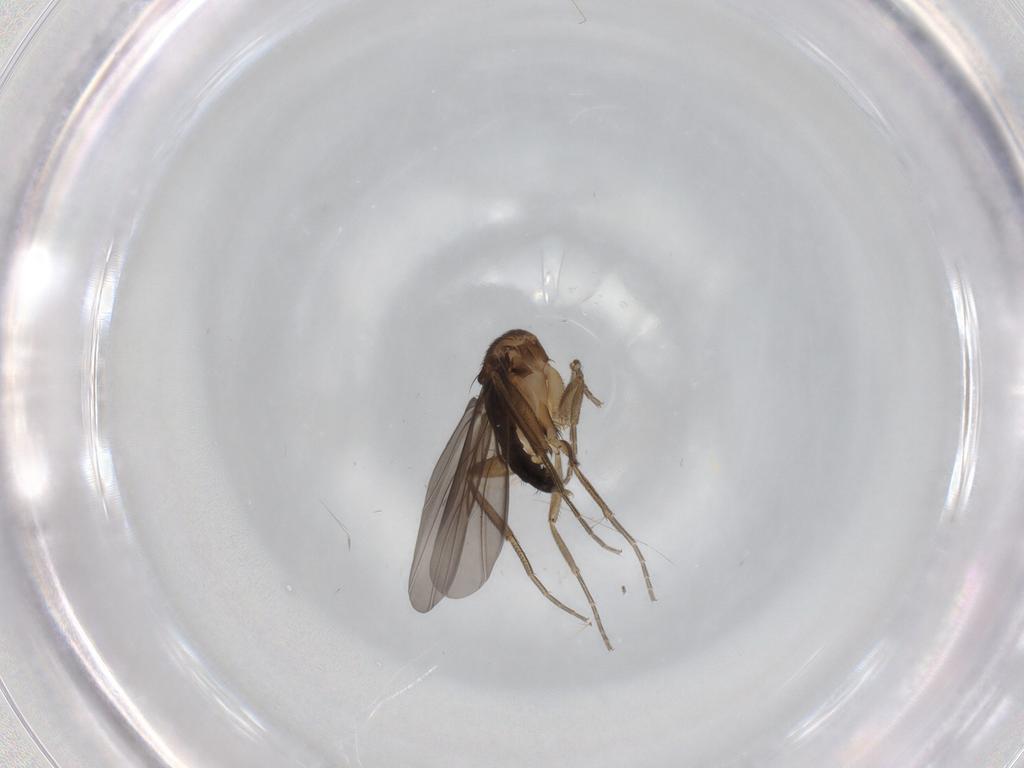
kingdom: Animalia
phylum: Arthropoda
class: Insecta
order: Diptera
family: Phoridae
